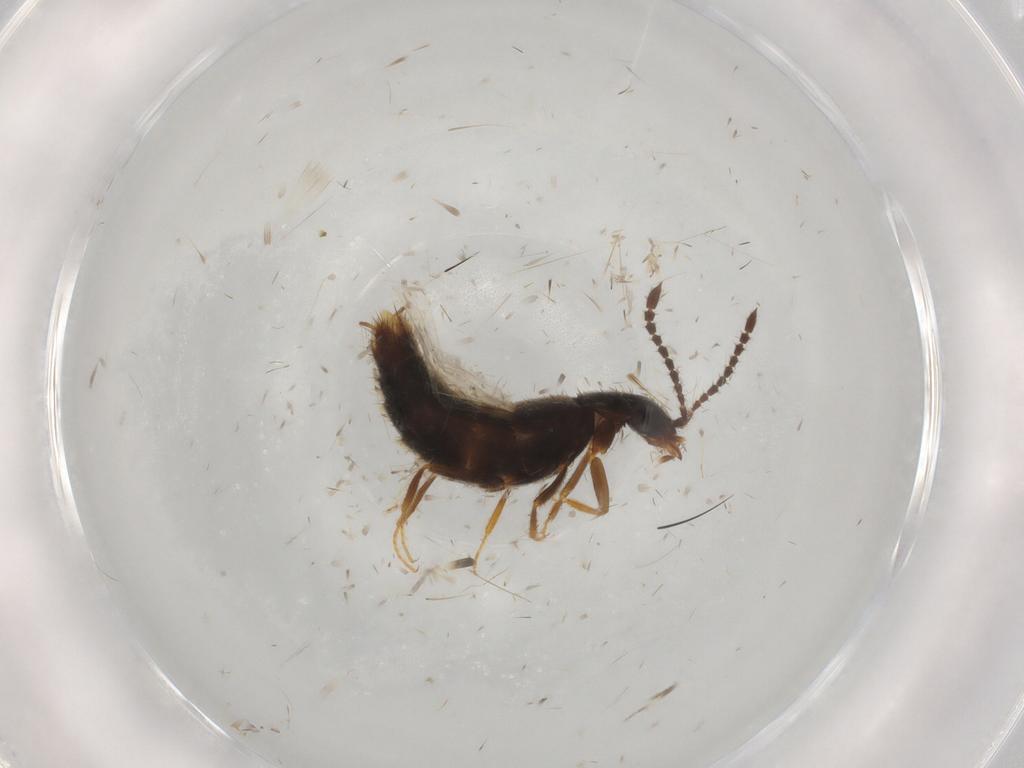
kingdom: Animalia
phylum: Arthropoda
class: Insecta
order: Coleoptera
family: Staphylinidae
